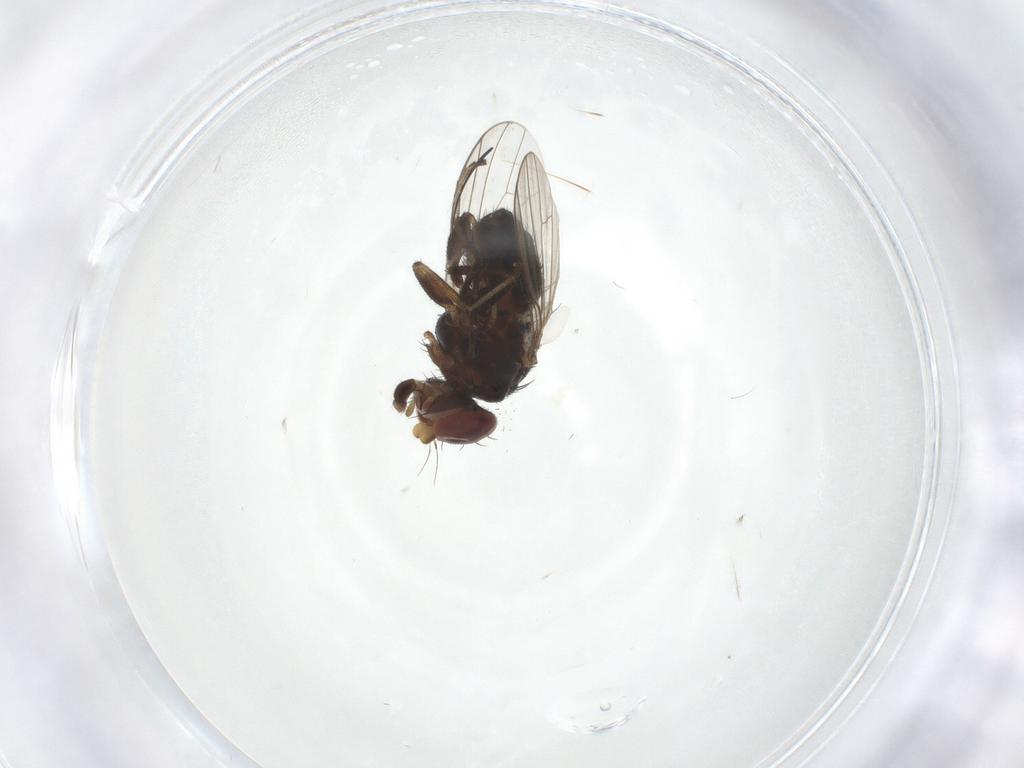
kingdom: Animalia
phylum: Arthropoda
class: Insecta
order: Diptera
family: Heleomyzidae
